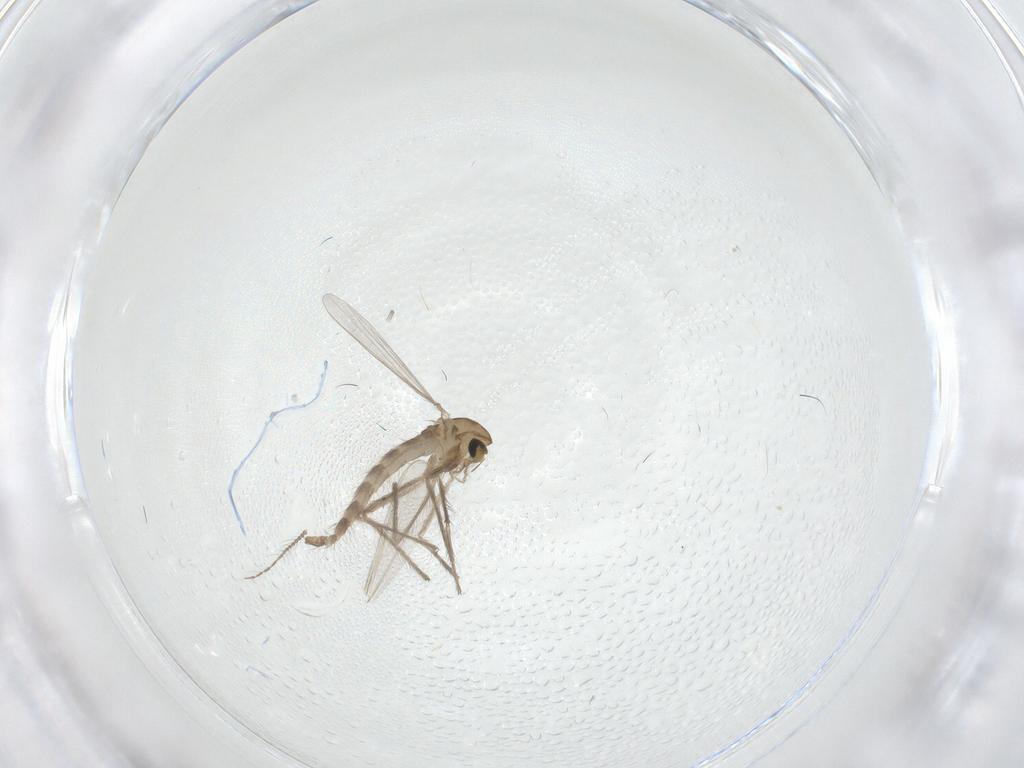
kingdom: Animalia
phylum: Arthropoda
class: Insecta
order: Diptera
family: Chironomidae
